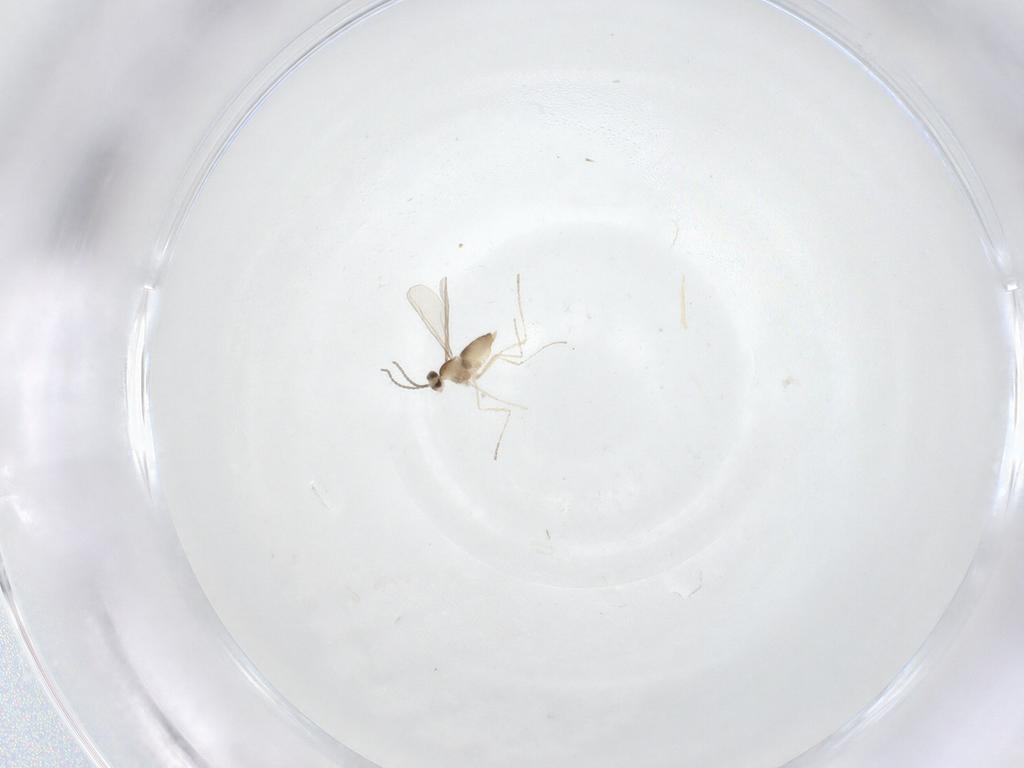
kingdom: Animalia
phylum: Arthropoda
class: Insecta
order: Diptera
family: Cecidomyiidae
